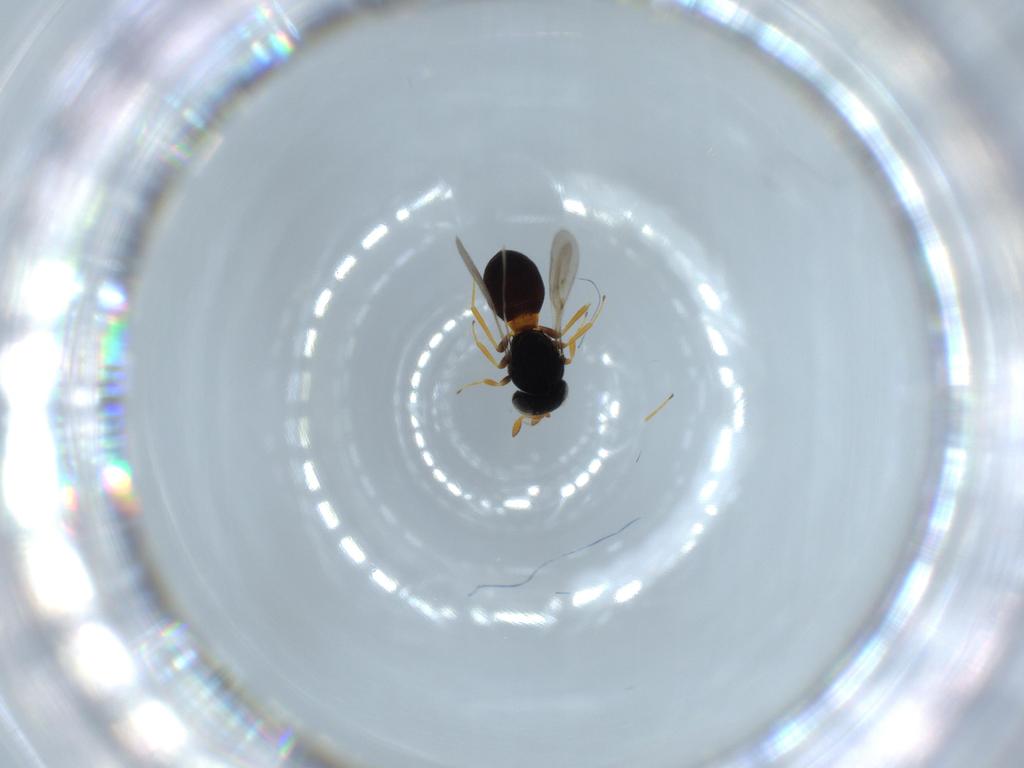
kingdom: Animalia
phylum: Arthropoda
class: Insecta
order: Hymenoptera
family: Scelionidae
